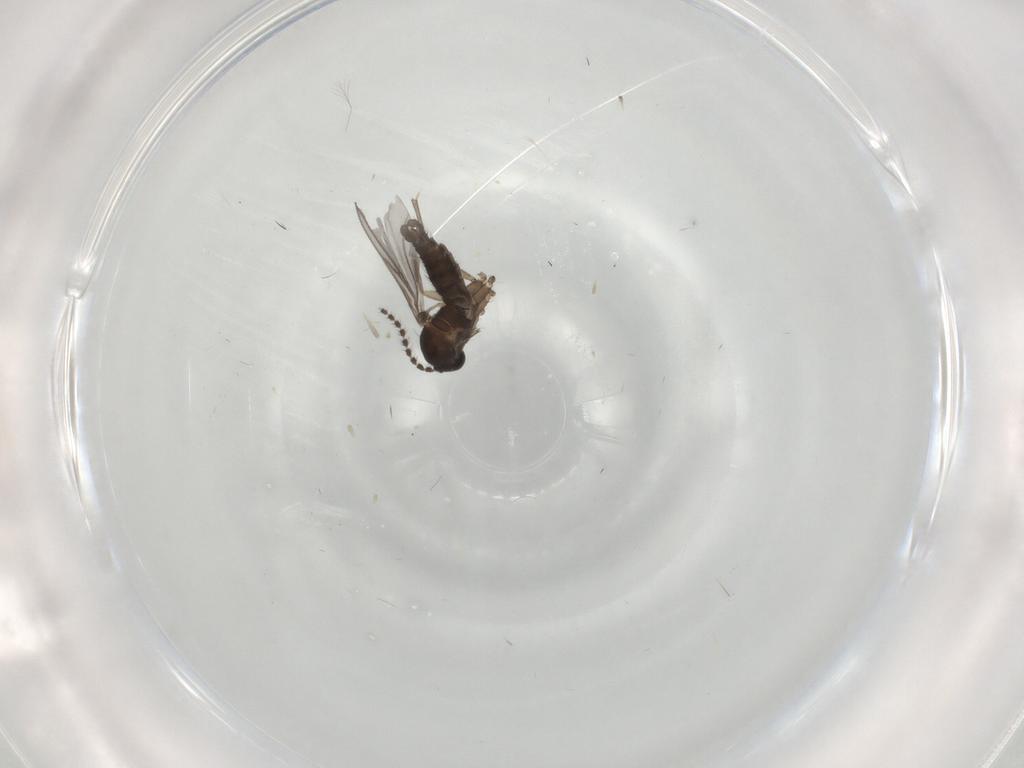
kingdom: Animalia
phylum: Arthropoda
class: Insecta
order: Diptera
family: Sciaridae
